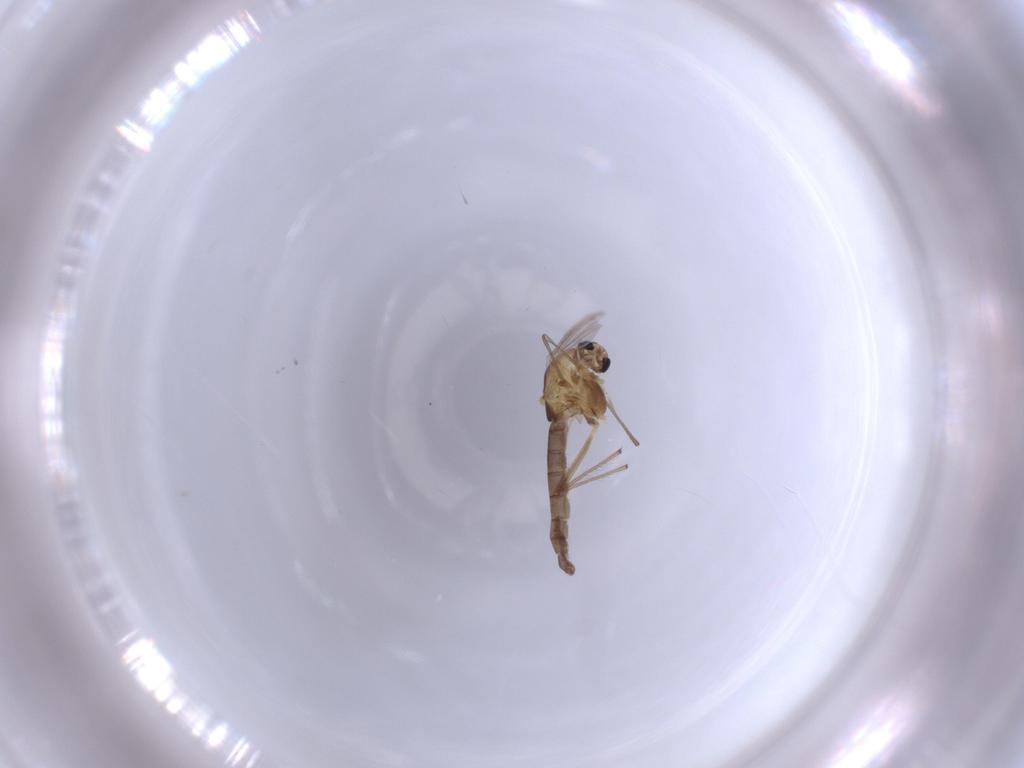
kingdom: Animalia
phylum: Arthropoda
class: Insecta
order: Diptera
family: Chironomidae
